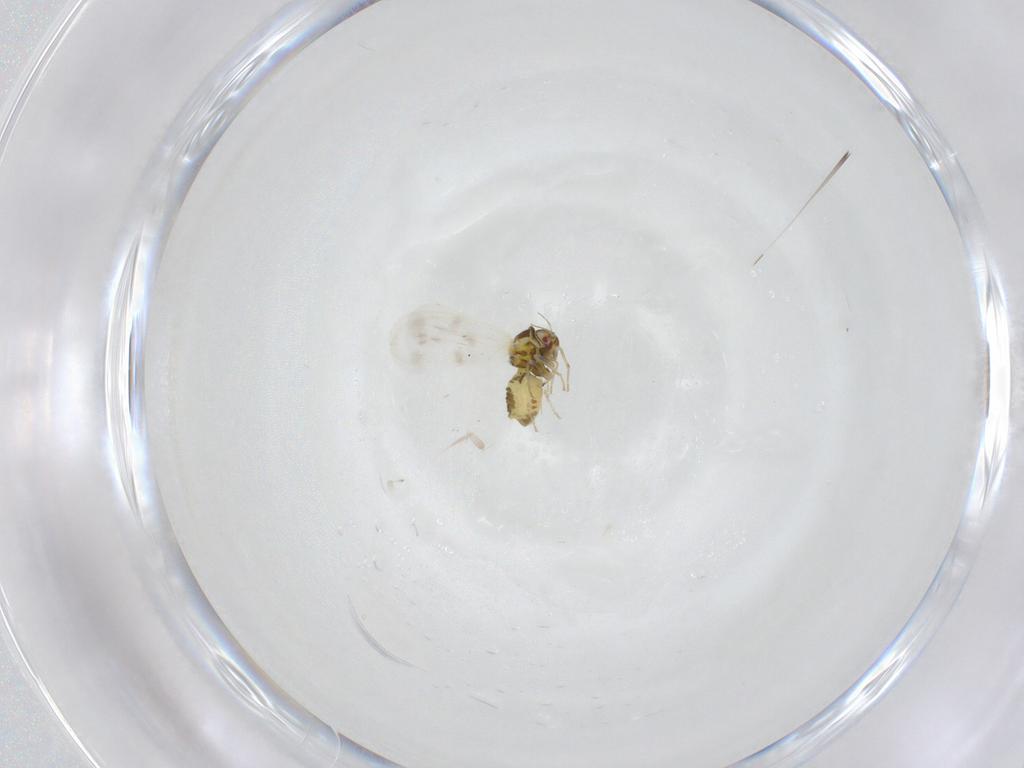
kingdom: Animalia
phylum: Arthropoda
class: Insecta
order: Hemiptera
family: Aleyrodidae
